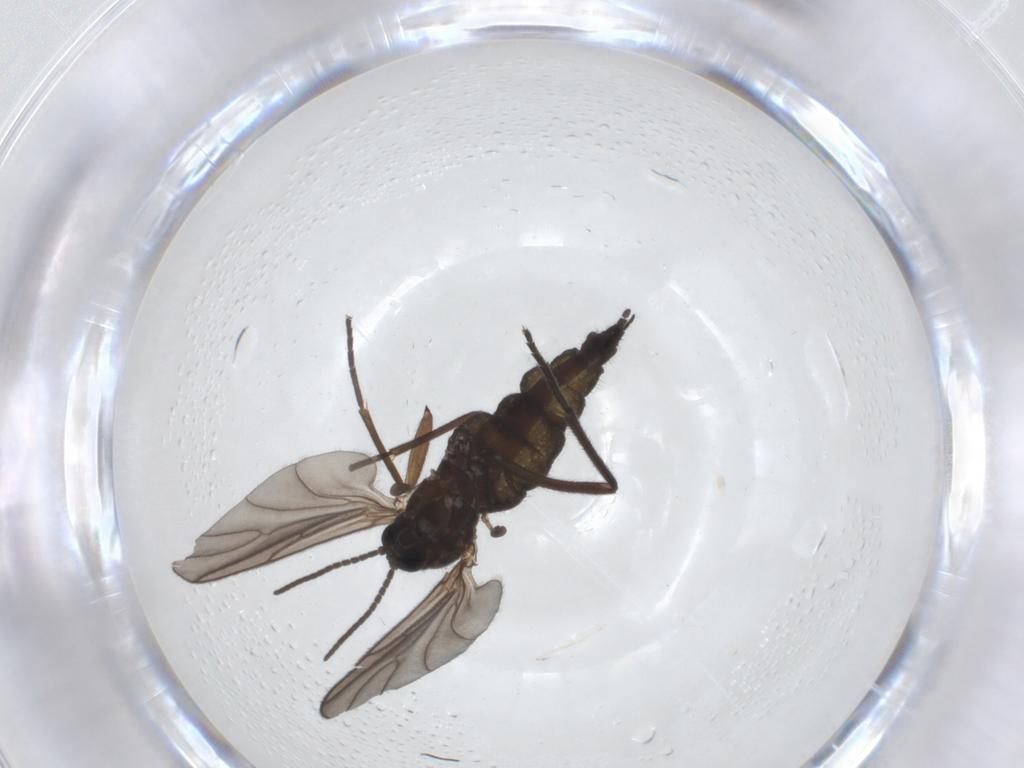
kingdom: Animalia
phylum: Arthropoda
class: Insecta
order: Diptera
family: Sciaridae
